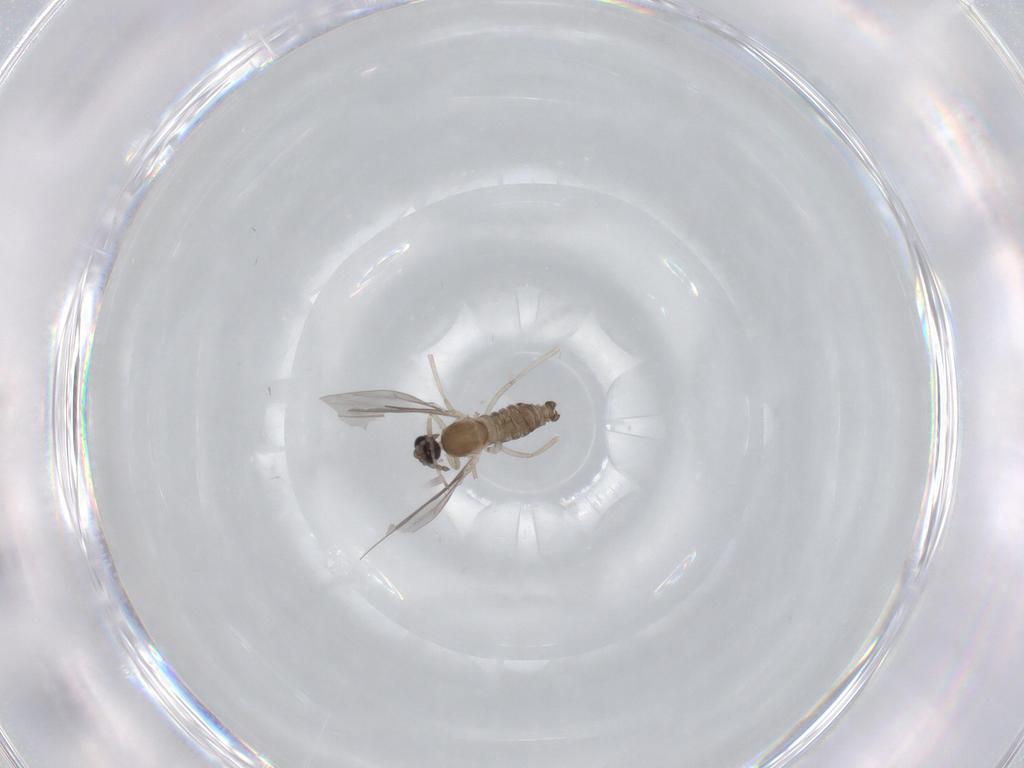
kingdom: Animalia
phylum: Arthropoda
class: Insecta
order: Diptera
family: Cecidomyiidae
